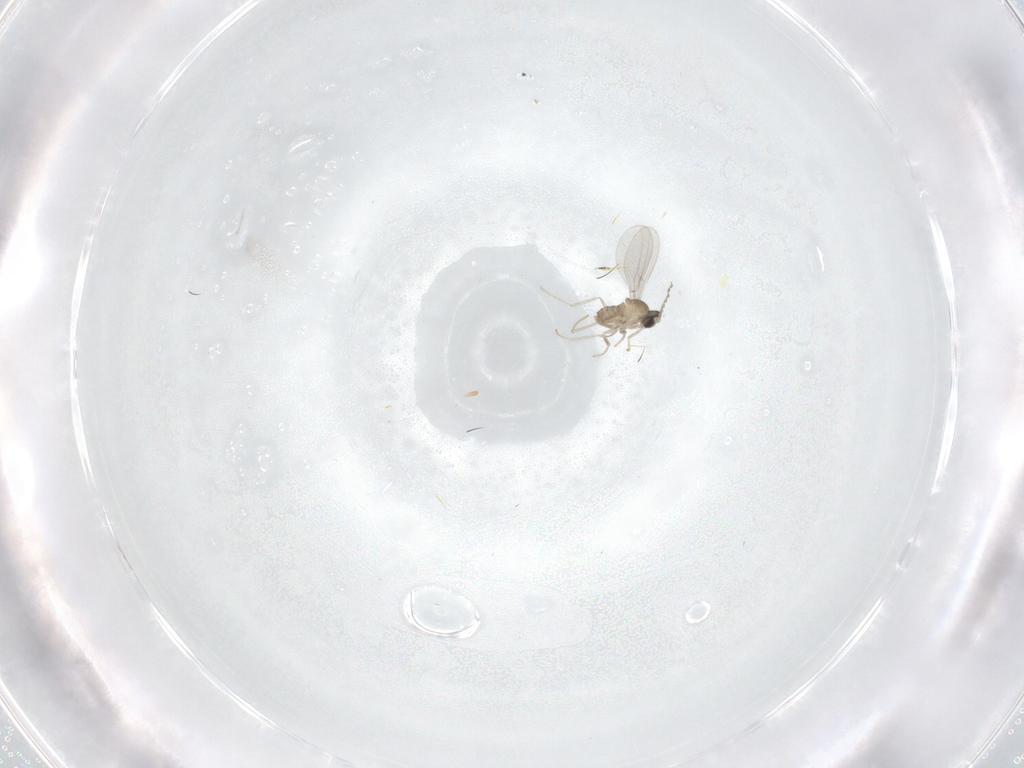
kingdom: Animalia
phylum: Arthropoda
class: Insecta
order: Diptera
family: Cecidomyiidae
